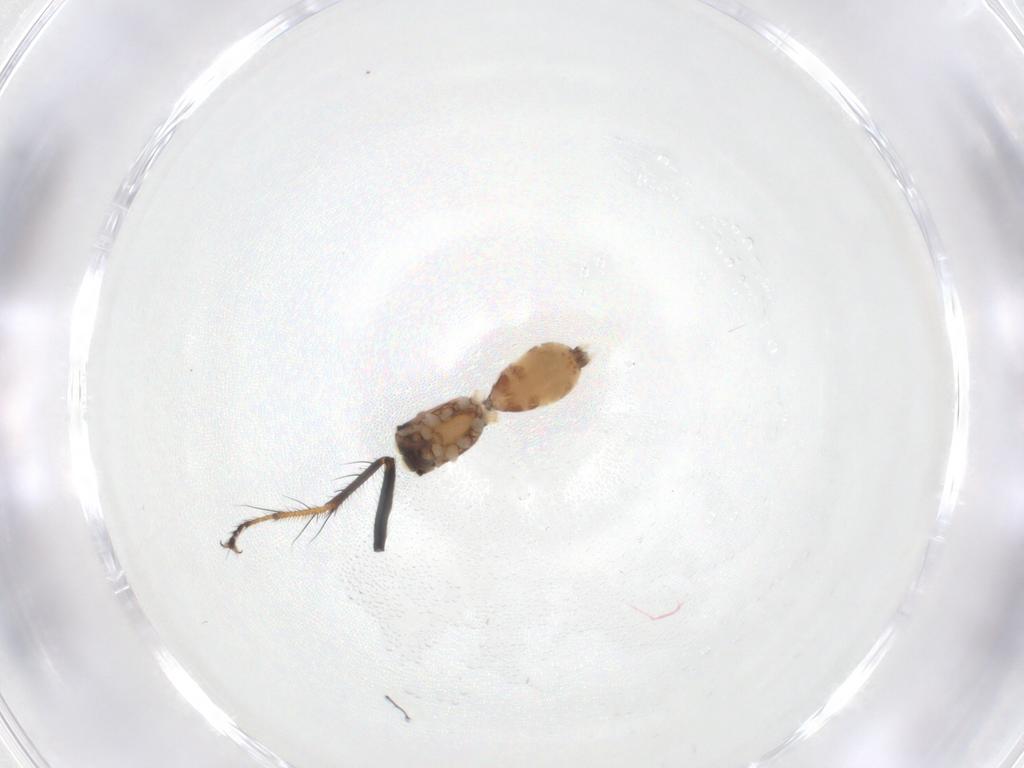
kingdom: Animalia
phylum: Arthropoda
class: Insecta
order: Diptera
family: Hybotidae
